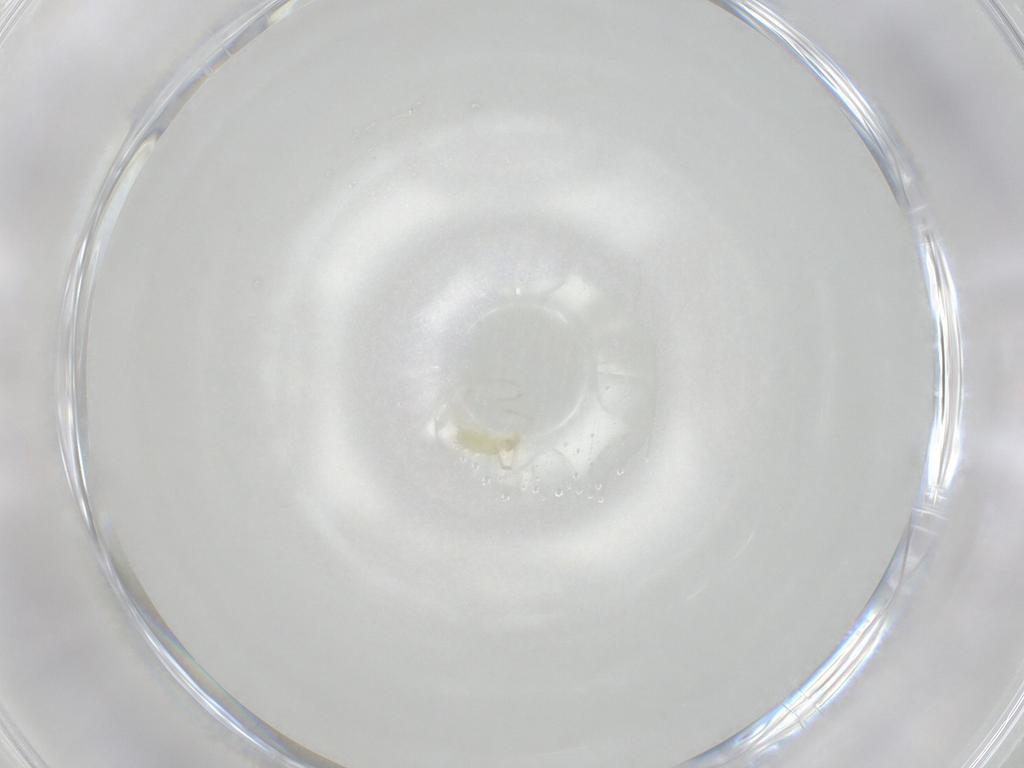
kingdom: Animalia
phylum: Arthropoda
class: Arachnida
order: Trombidiformes
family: Erythraeidae
